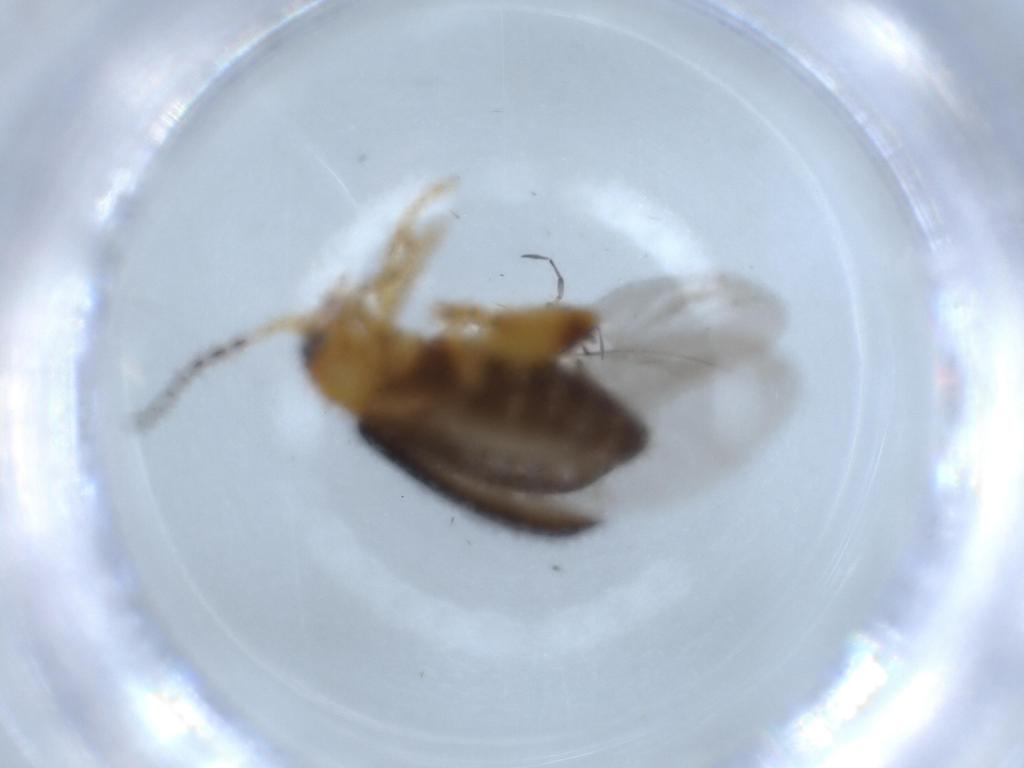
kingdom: Animalia
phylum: Arthropoda
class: Insecta
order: Coleoptera
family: Chrysomelidae
